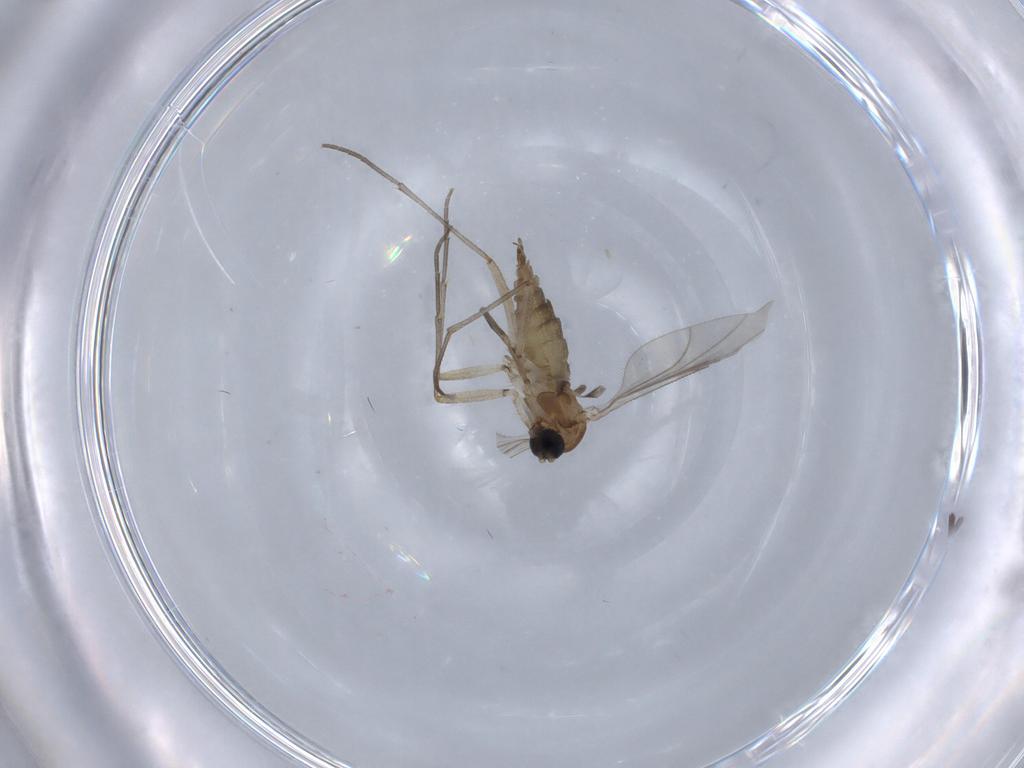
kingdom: Animalia
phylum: Arthropoda
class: Insecta
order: Diptera
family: Sciaridae
